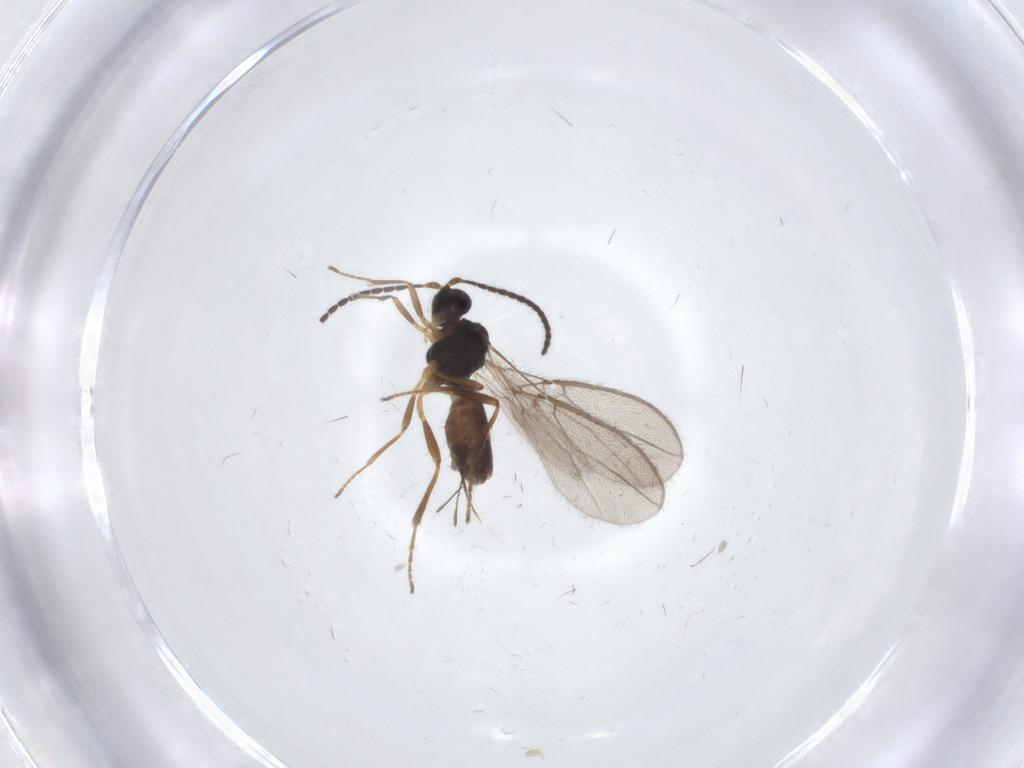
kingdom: Animalia
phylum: Arthropoda
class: Insecta
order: Hymenoptera
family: Braconidae
